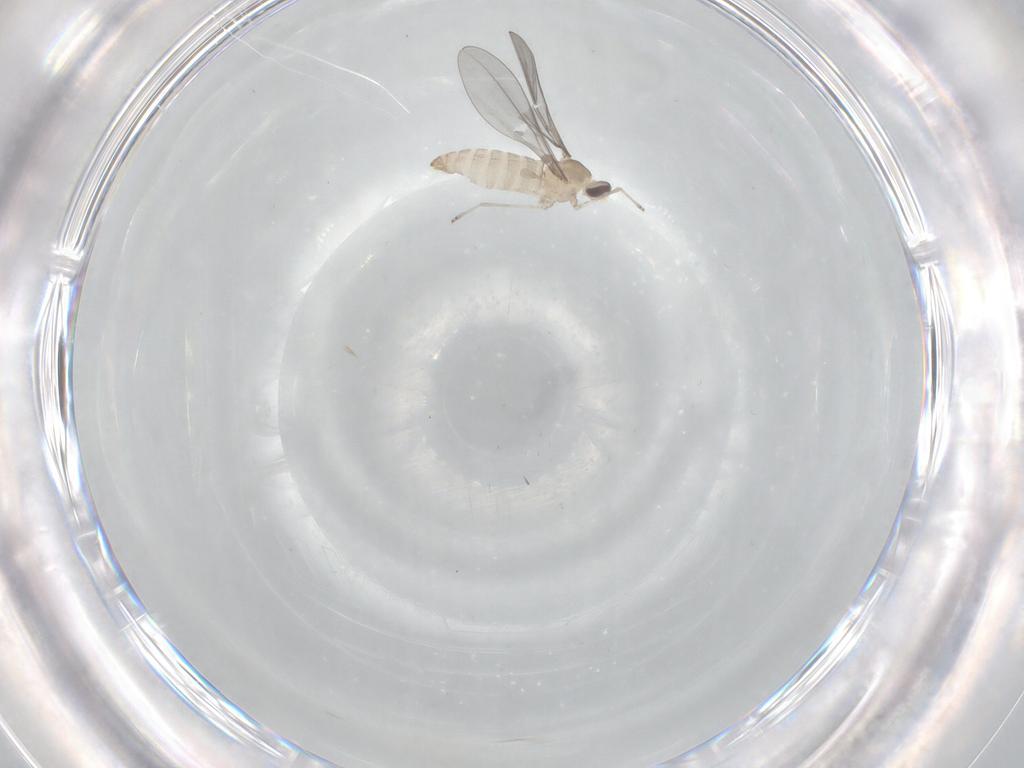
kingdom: Animalia
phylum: Arthropoda
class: Insecta
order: Diptera
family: Cecidomyiidae
